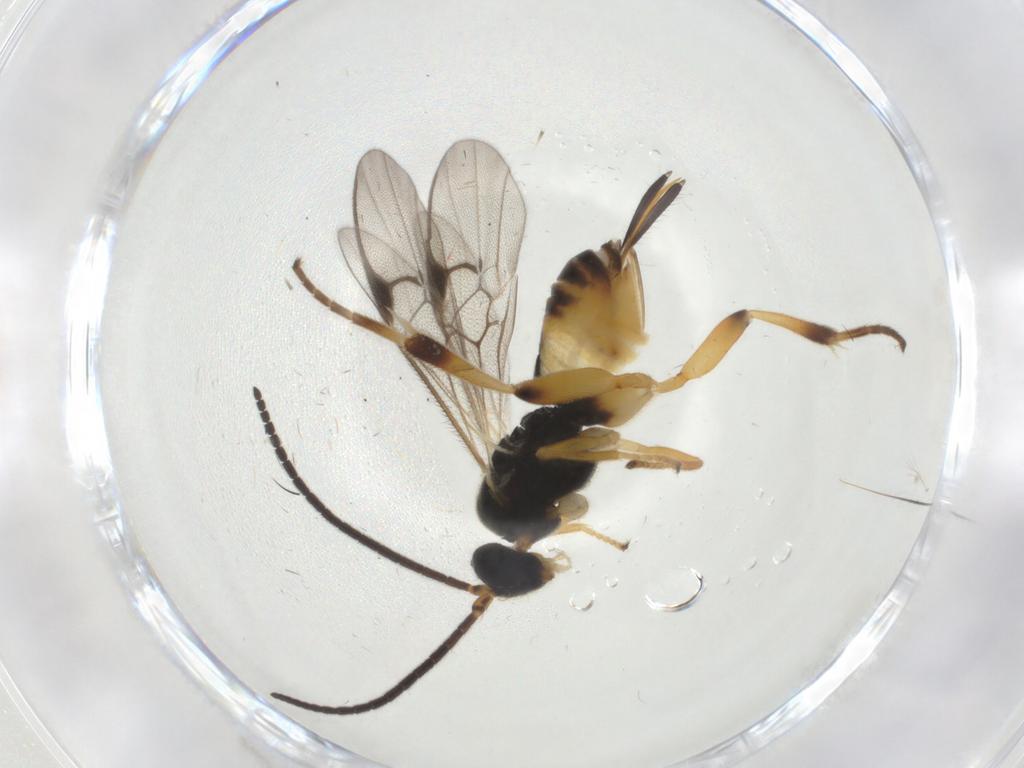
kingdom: Animalia
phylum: Arthropoda
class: Insecta
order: Hymenoptera
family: Braconidae
